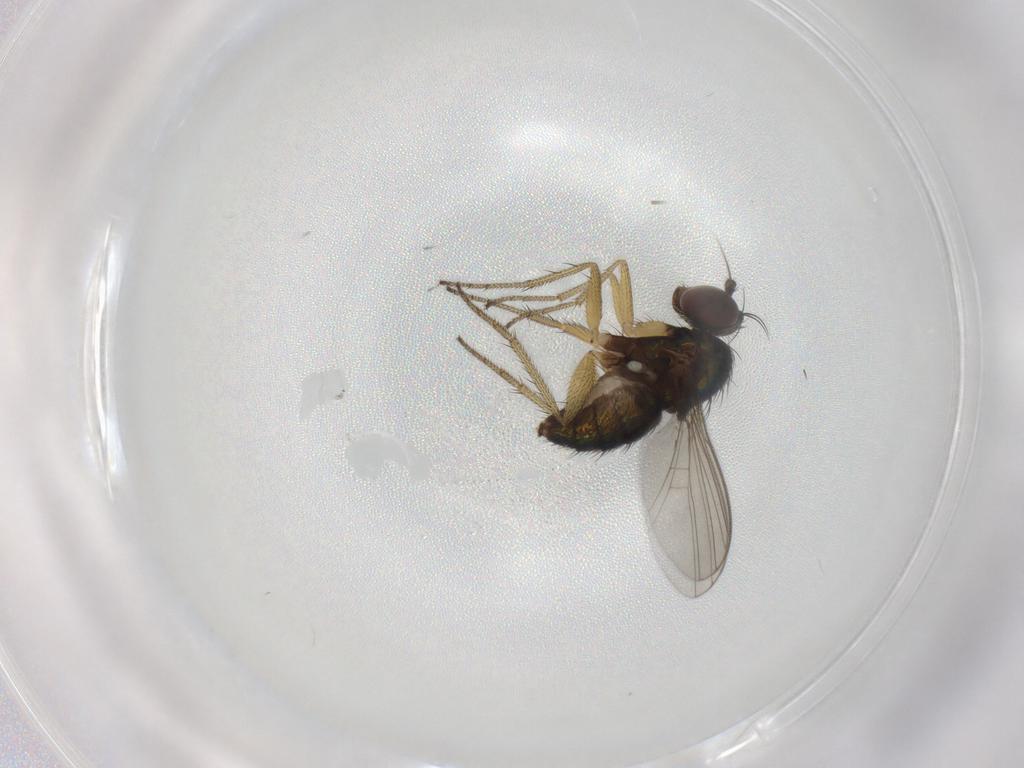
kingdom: Animalia
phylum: Arthropoda
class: Insecta
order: Diptera
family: Dolichopodidae
